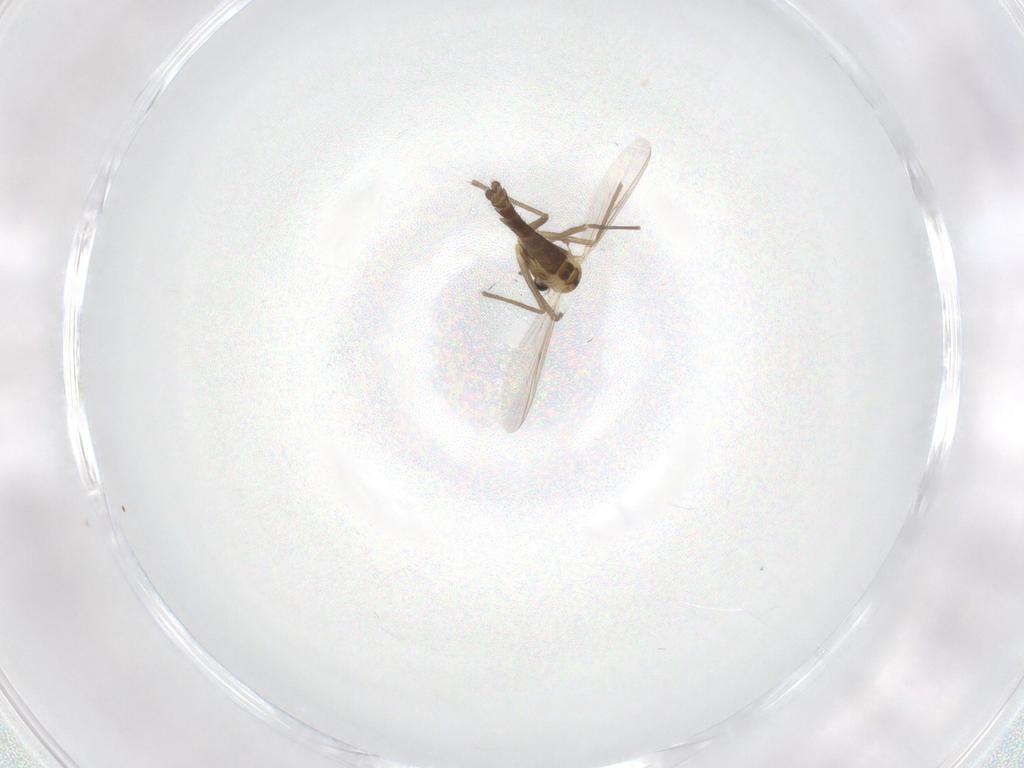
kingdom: Animalia
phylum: Arthropoda
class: Insecta
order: Diptera
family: Chironomidae
